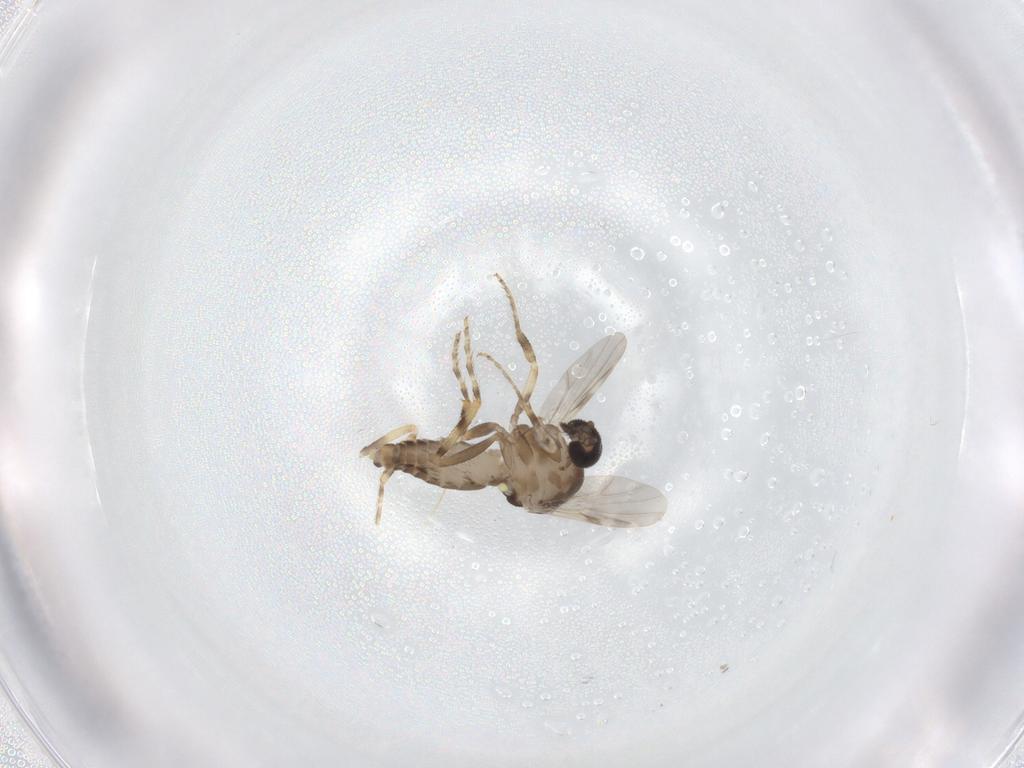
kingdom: Animalia
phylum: Arthropoda
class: Insecta
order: Diptera
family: Ceratopogonidae
